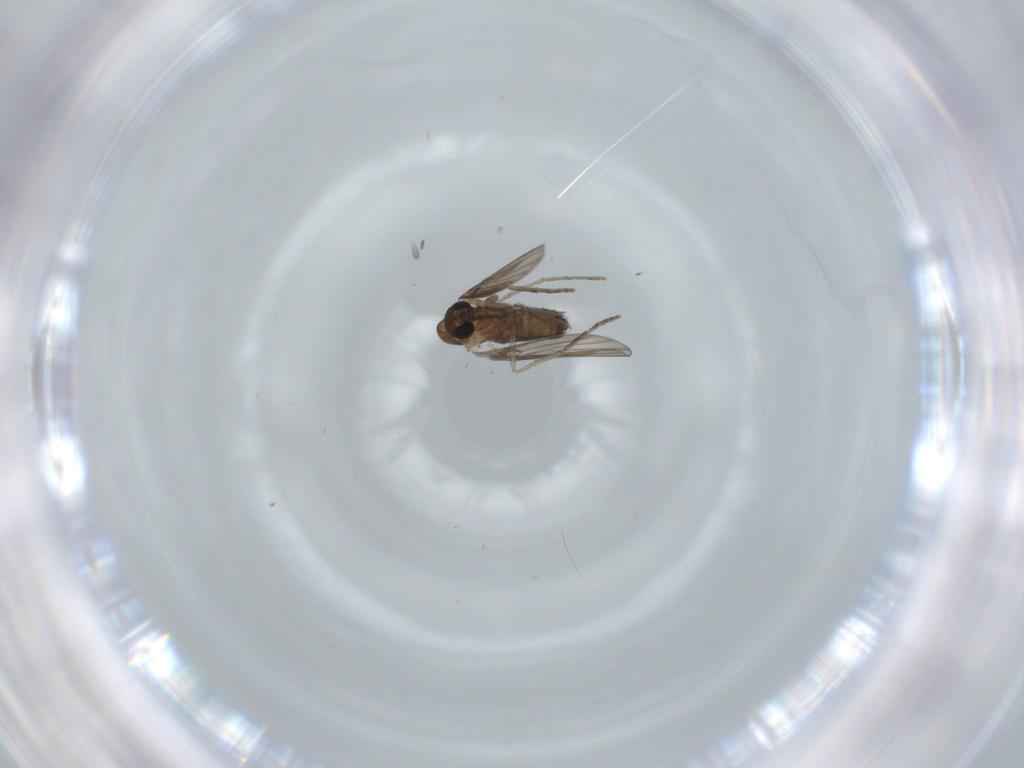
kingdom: Animalia
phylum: Arthropoda
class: Insecta
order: Diptera
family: Psychodidae
